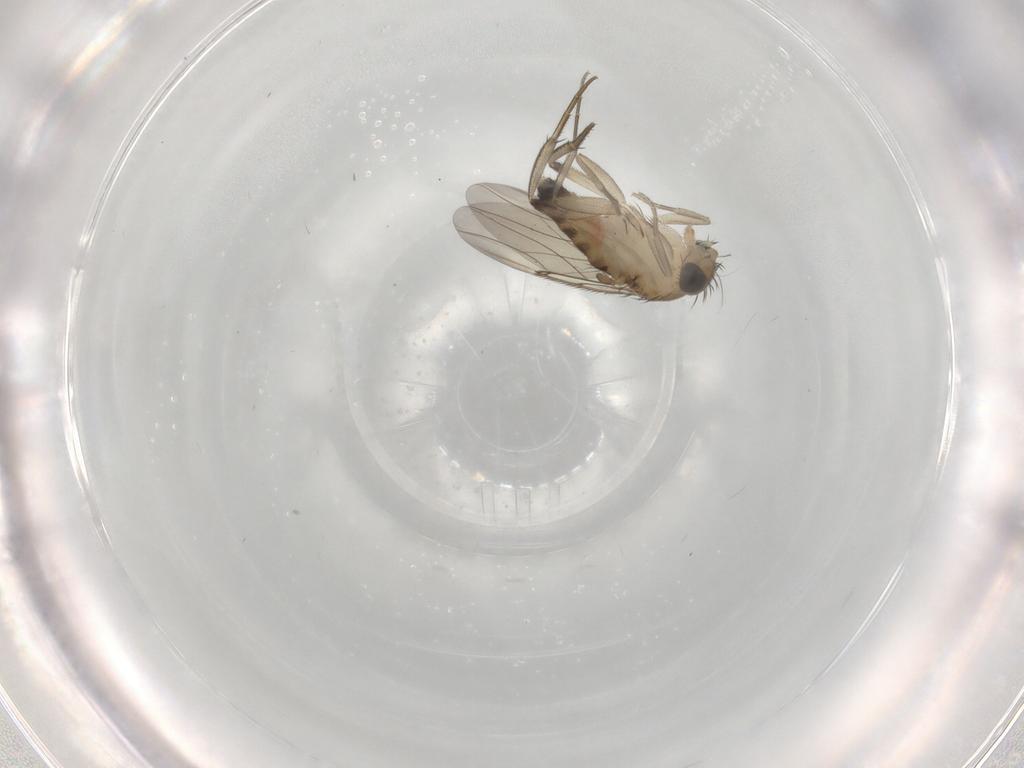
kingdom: Animalia
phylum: Arthropoda
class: Insecta
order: Diptera
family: Phoridae
